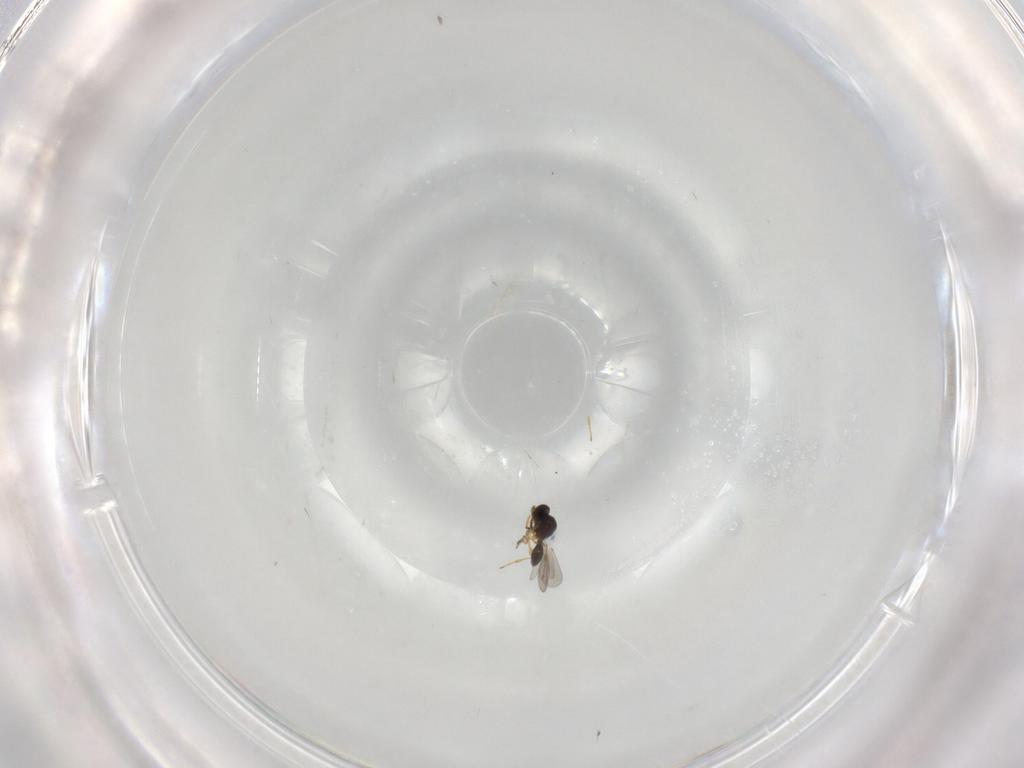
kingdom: Animalia
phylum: Arthropoda
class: Insecta
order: Hymenoptera
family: Platygastridae
